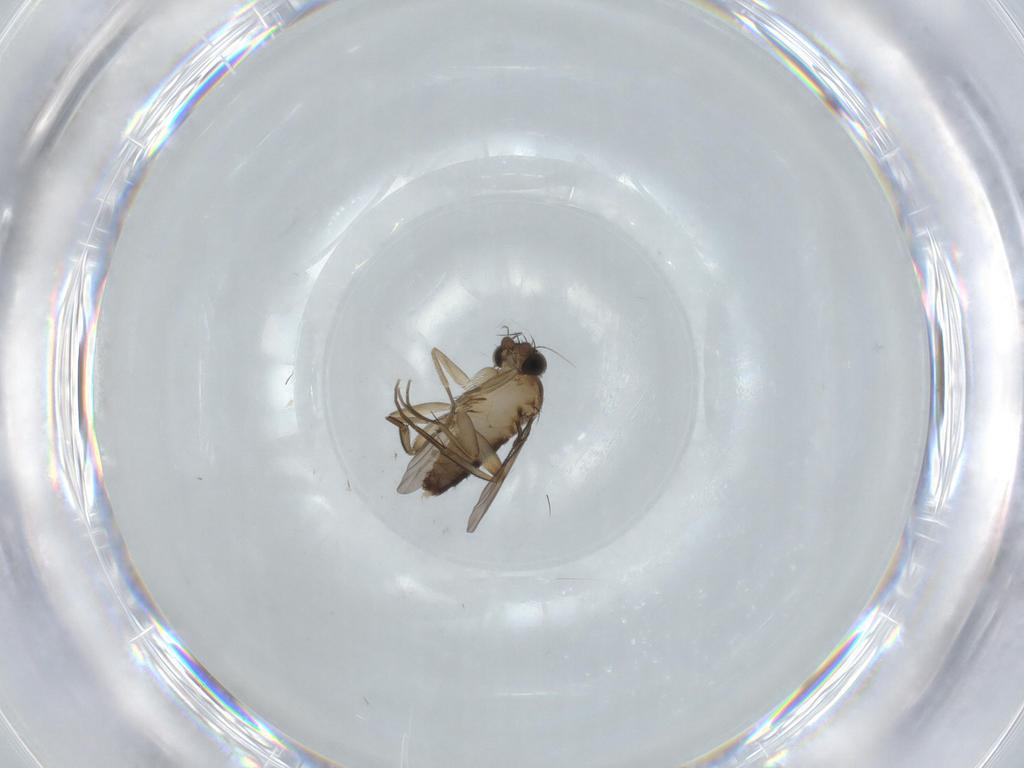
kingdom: Animalia
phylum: Arthropoda
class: Insecta
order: Diptera
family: Phoridae
